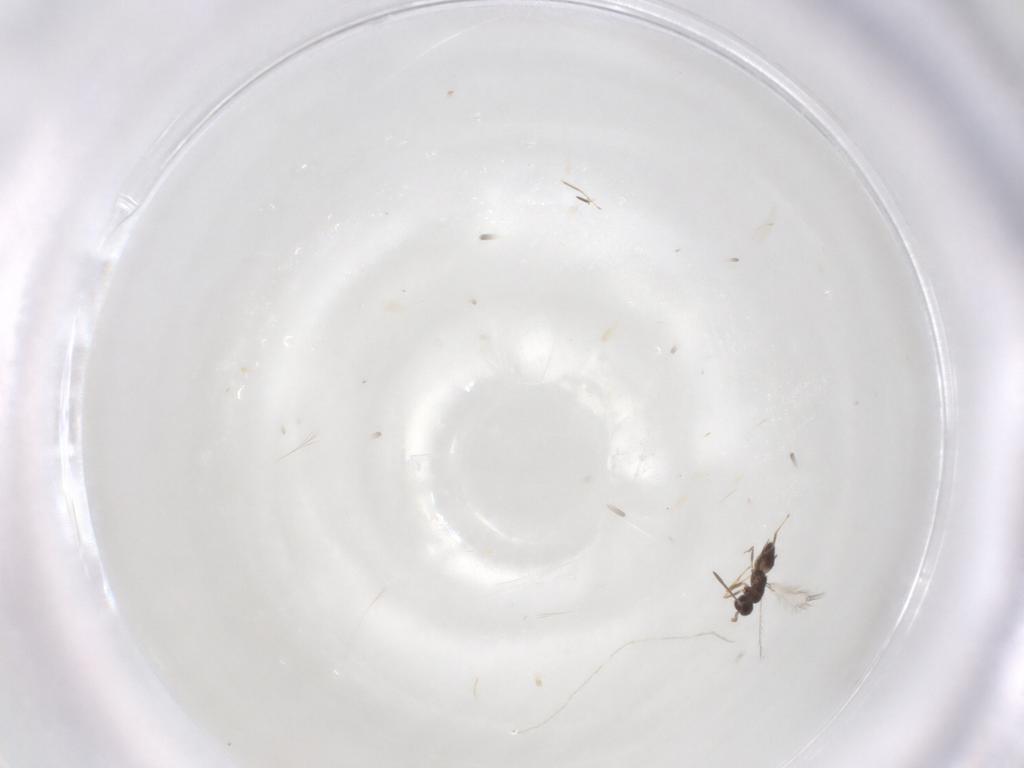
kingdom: Animalia
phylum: Arthropoda
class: Insecta
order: Hymenoptera
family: Mymaridae
